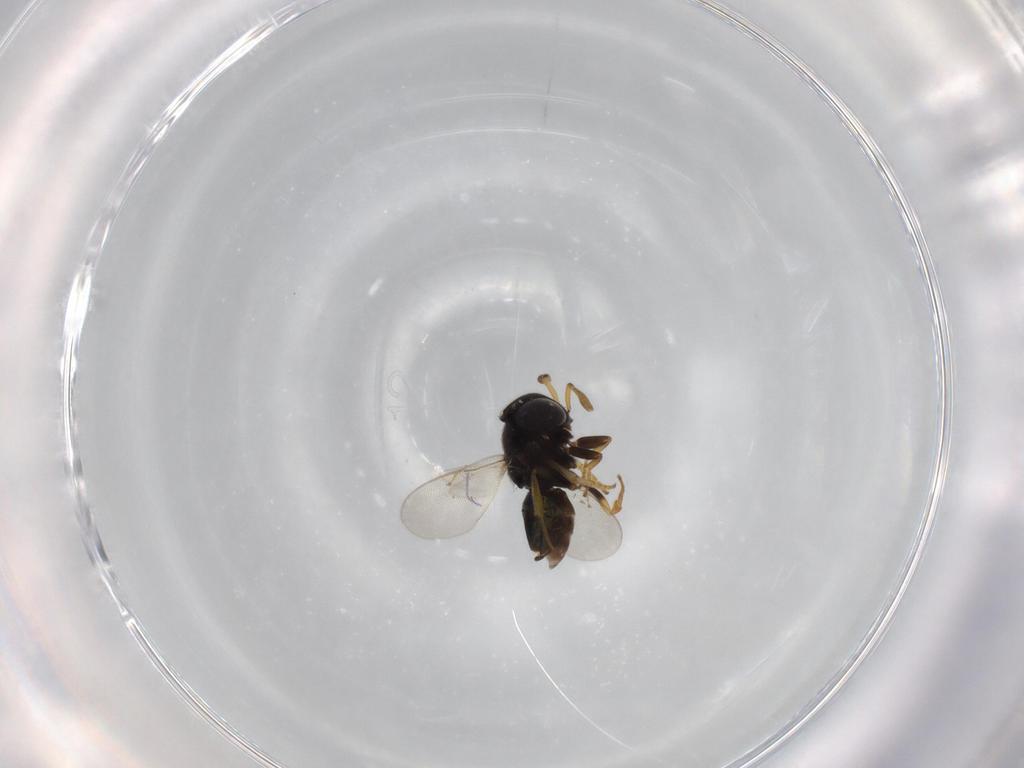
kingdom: Animalia
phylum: Arthropoda
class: Insecta
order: Hymenoptera
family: Encyrtidae
